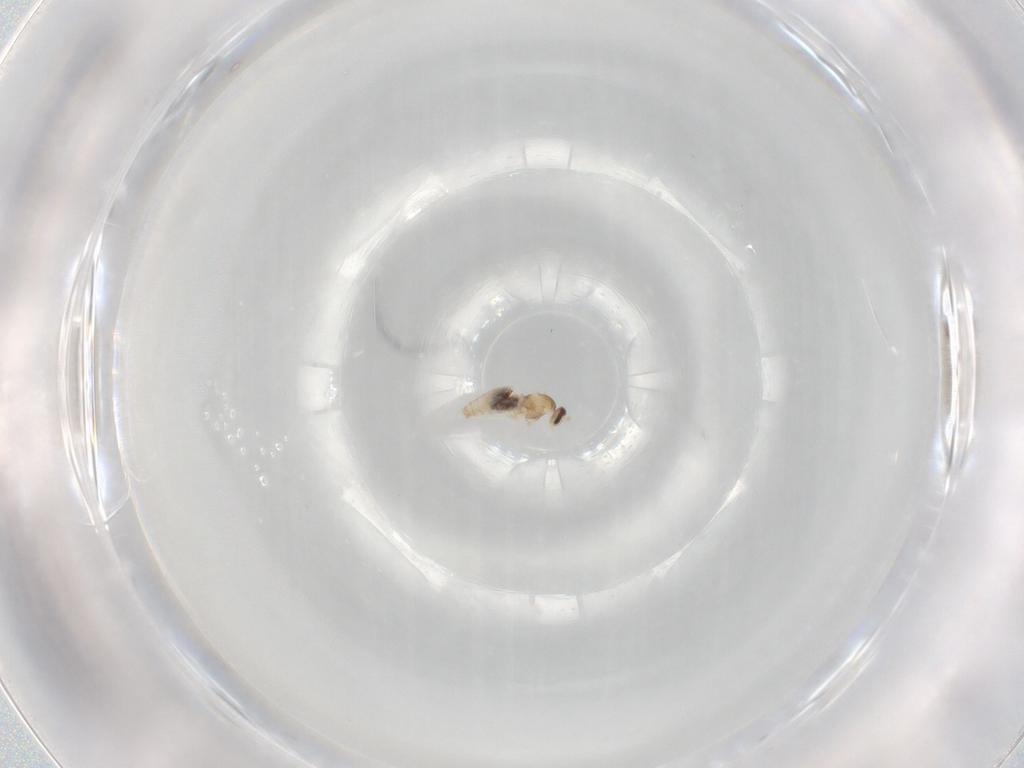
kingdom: Animalia
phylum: Arthropoda
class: Insecta
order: Diptera
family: Cecidomyiidae
